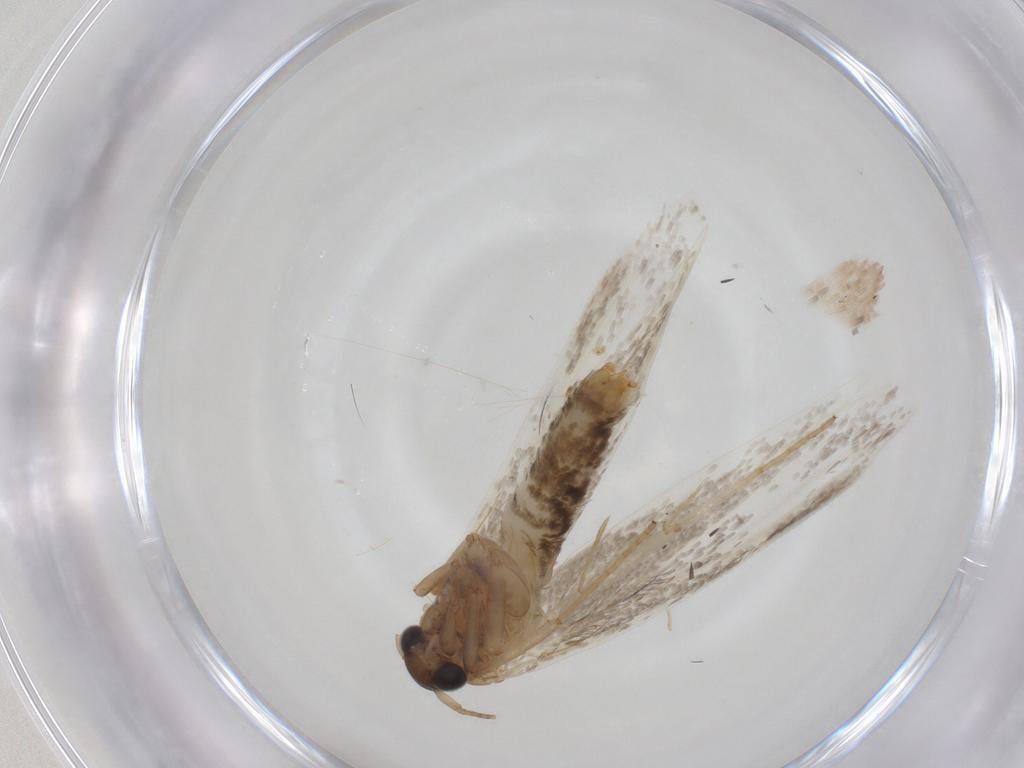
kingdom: Animalia
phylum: Arthropoda
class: Insecta
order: Lepidoptera
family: Blastobasidae
